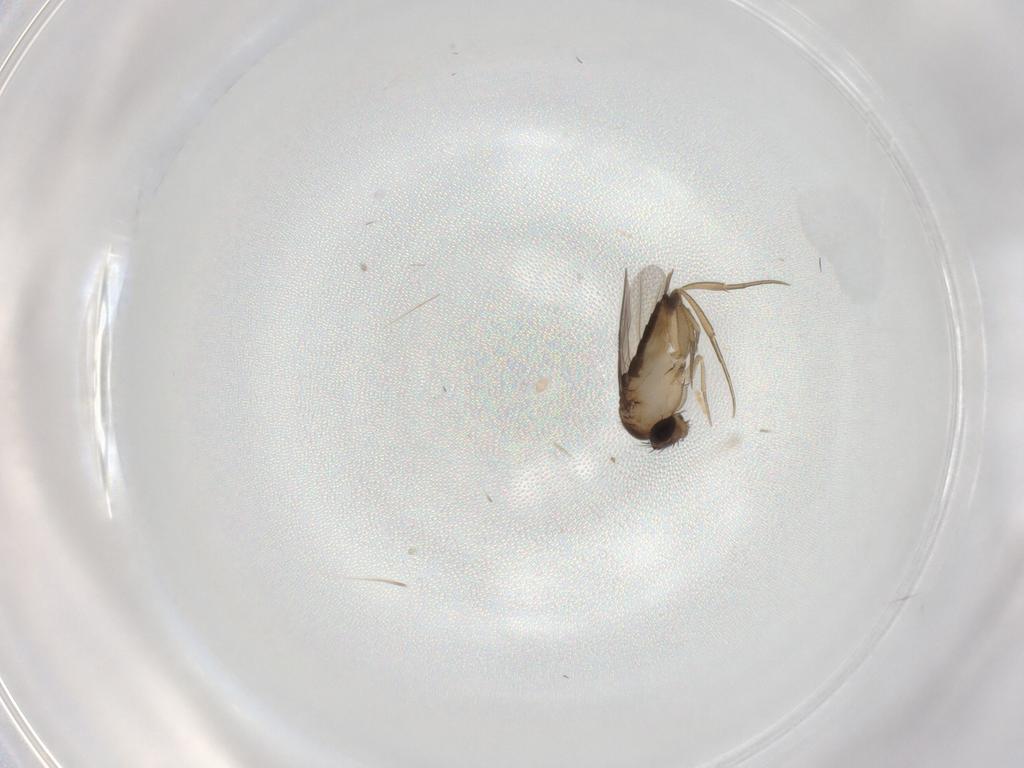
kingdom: Animalia
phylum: Arthropoda
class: Insecta
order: Diptera
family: Phoridae
